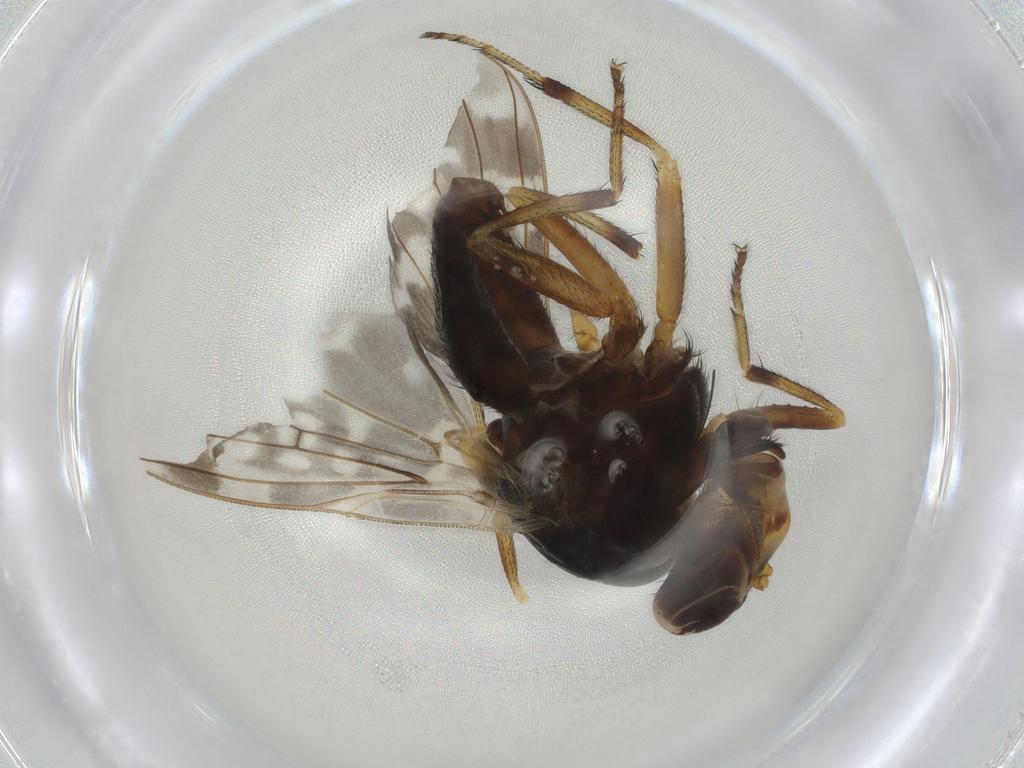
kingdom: Animalia
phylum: Arthropoda
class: Insecta
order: Diptera
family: Lauxaniidae
